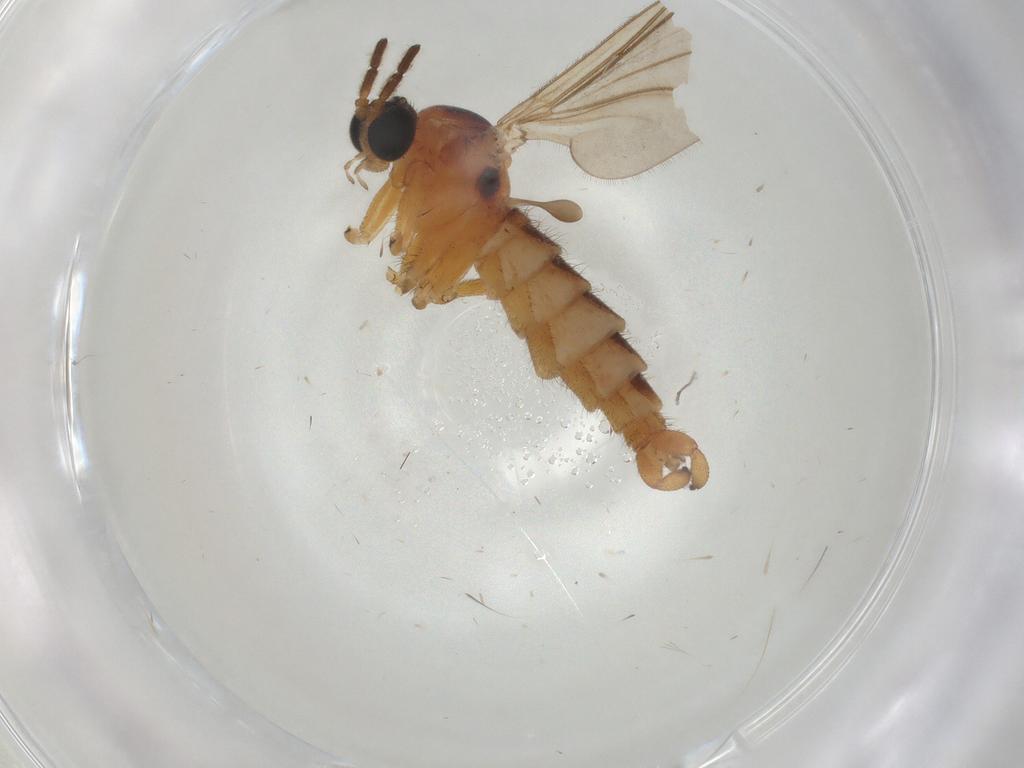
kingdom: Animalia
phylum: Arthropoda
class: Insecta
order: Diptera
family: Sciaridae
